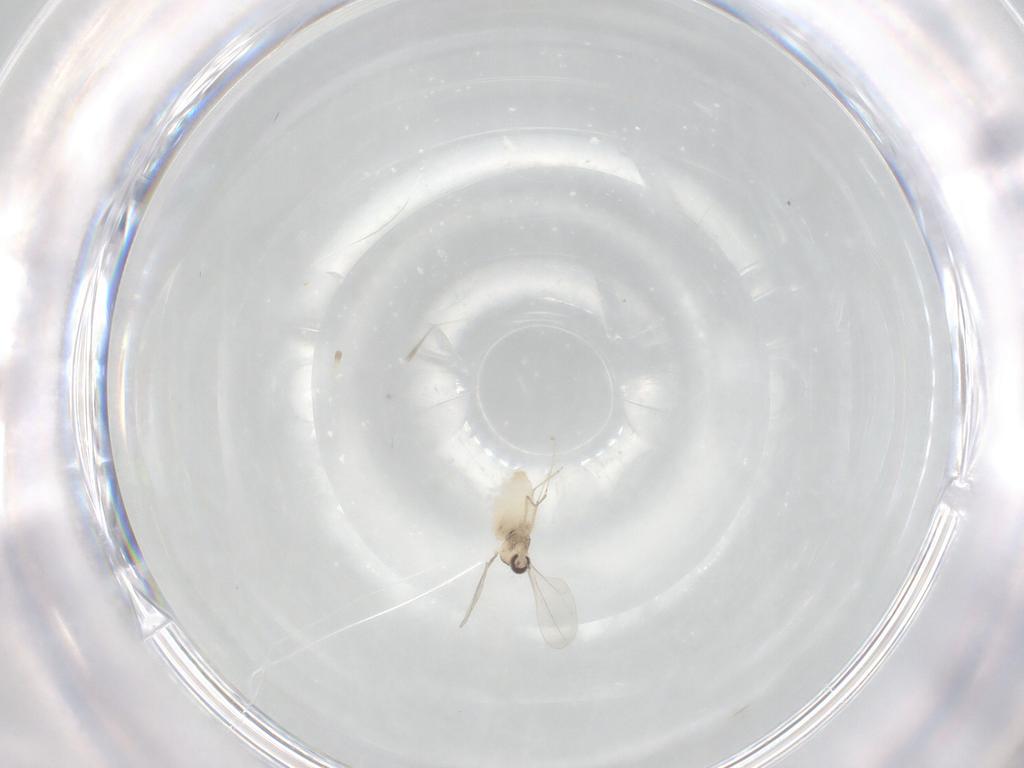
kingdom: Animalia
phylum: Arthropoda
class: Insecta
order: Diptera
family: Cecidomyiidae
